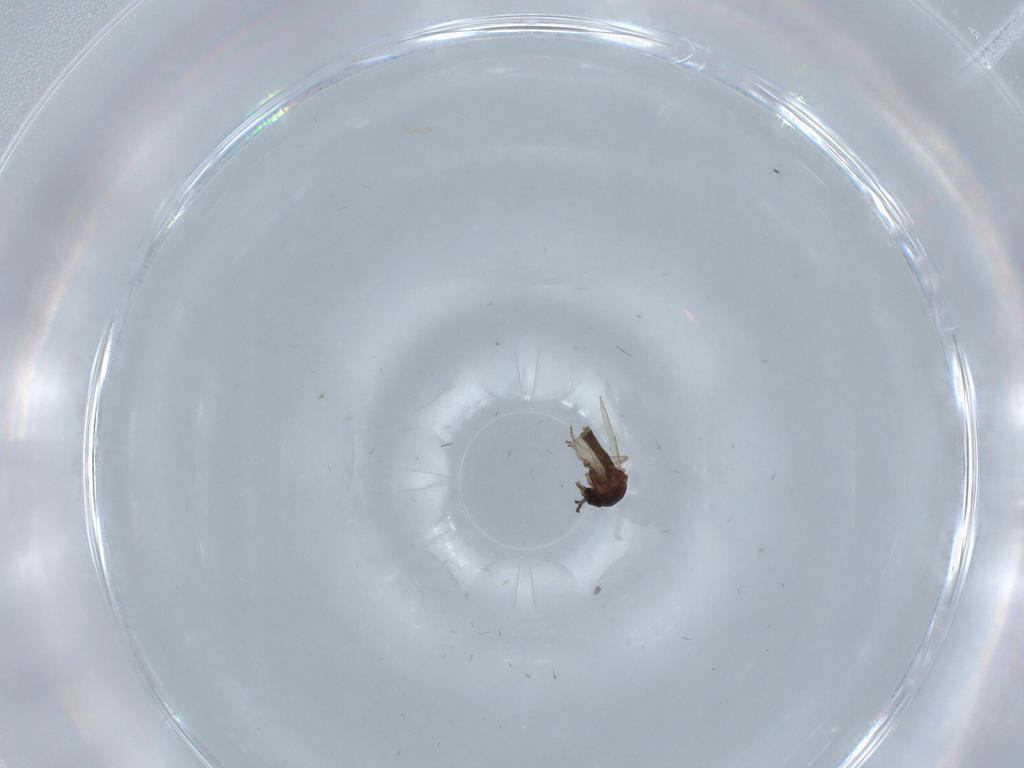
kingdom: Animalia
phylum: Arthropoda
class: Insecta
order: Diptera
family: Ceratopogonidae
